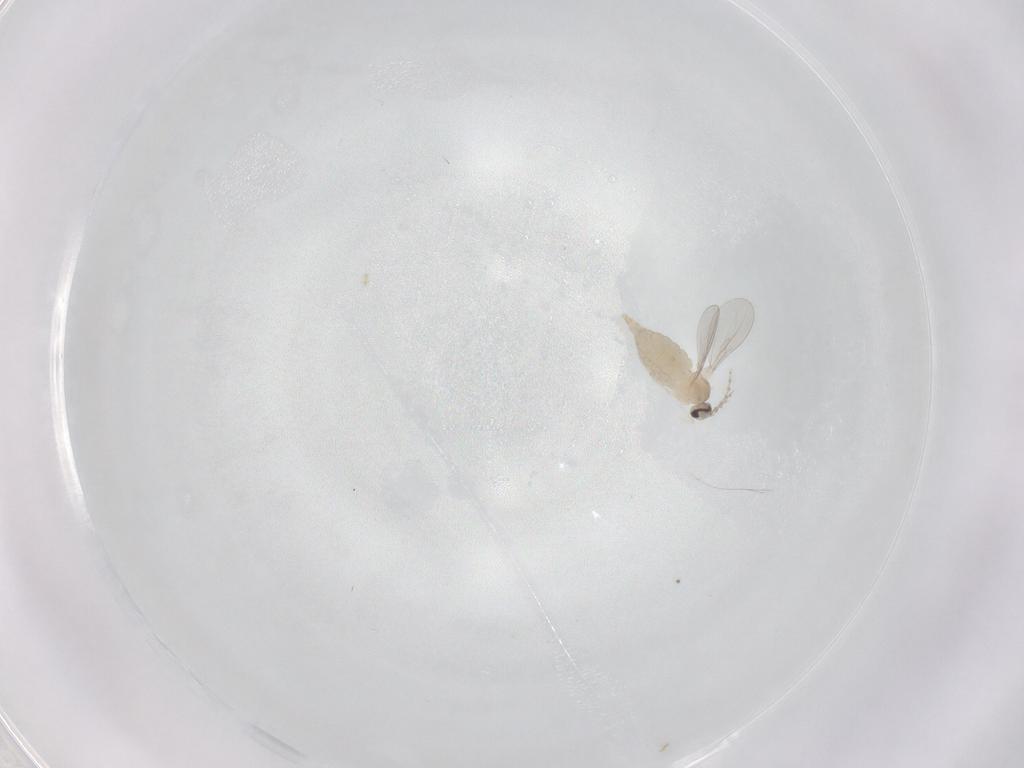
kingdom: Animalia
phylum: Arthropoda
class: Insecta
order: Diptera
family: Cecidomyiidae
